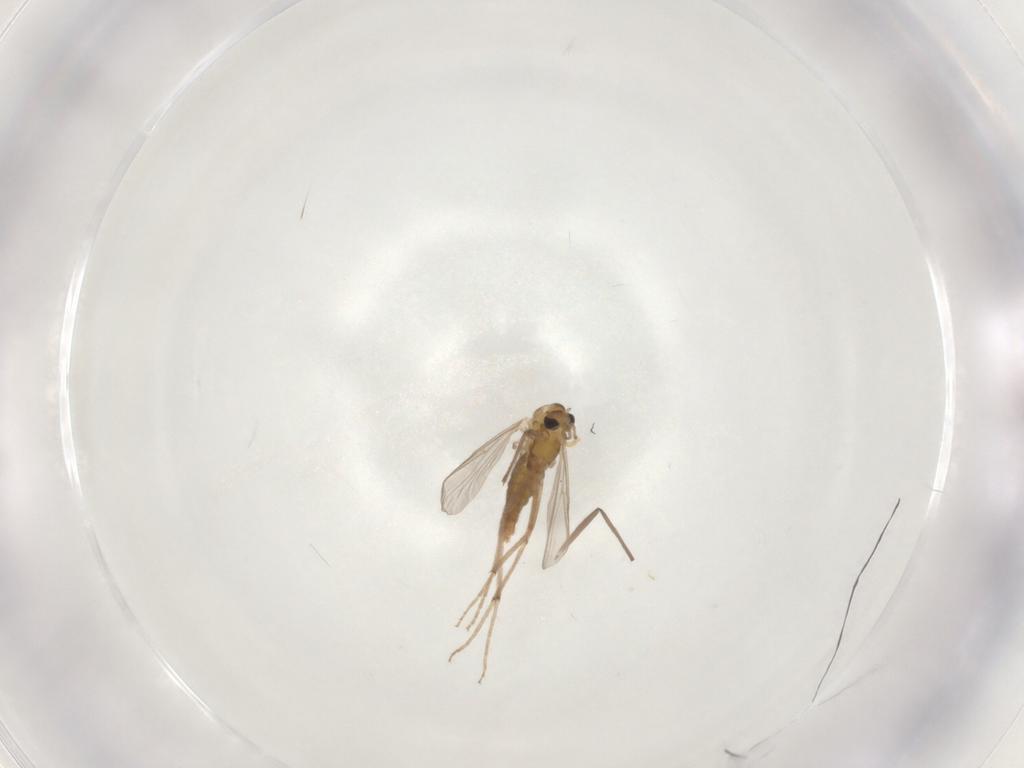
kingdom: Animalia
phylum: Arthropoda
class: Insecta
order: Diptera
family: Chironomidae
